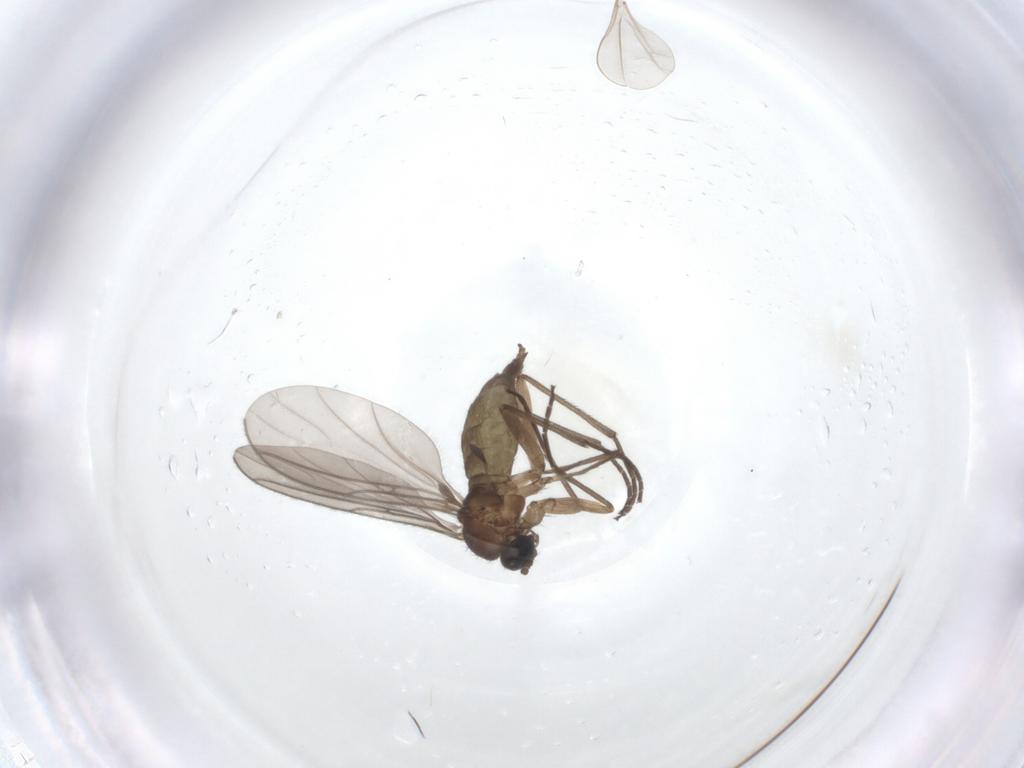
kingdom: Animalia
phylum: Arthropoda
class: Insecta
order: Diptera
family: Sciaridae
